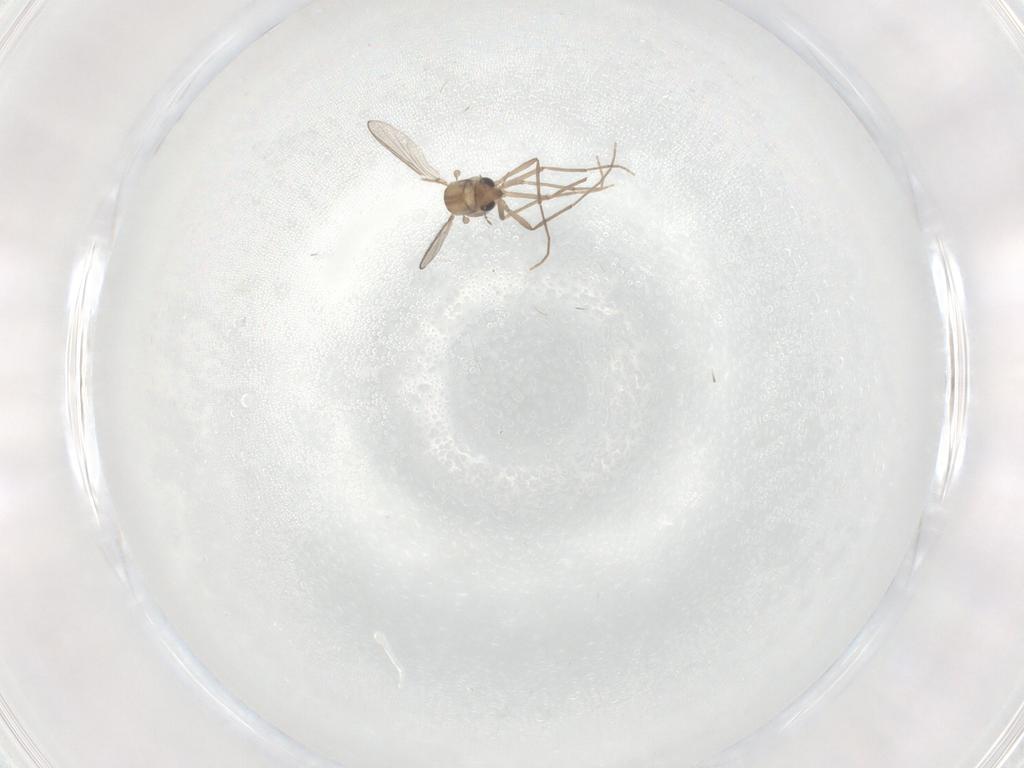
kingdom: Animalia
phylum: Arthropoda
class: Insecta
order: Diptera
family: Chironomidae
